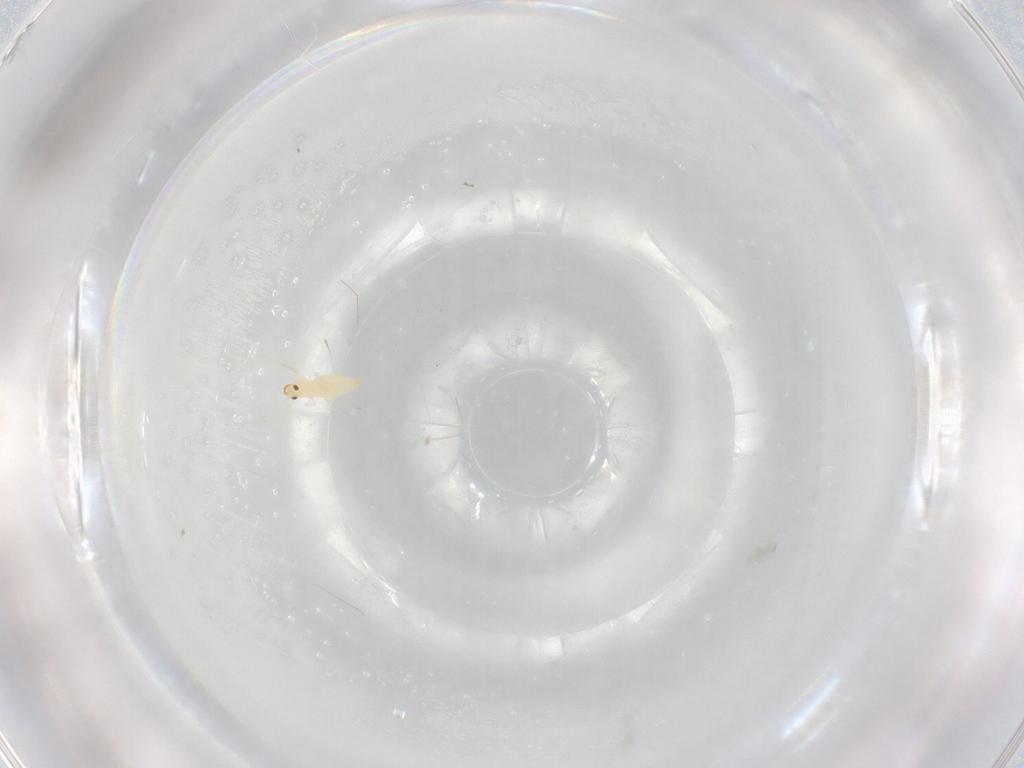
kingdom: Animalia
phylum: Arthropoda
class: Insecta
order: Diptera
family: Cecidomyiidae
